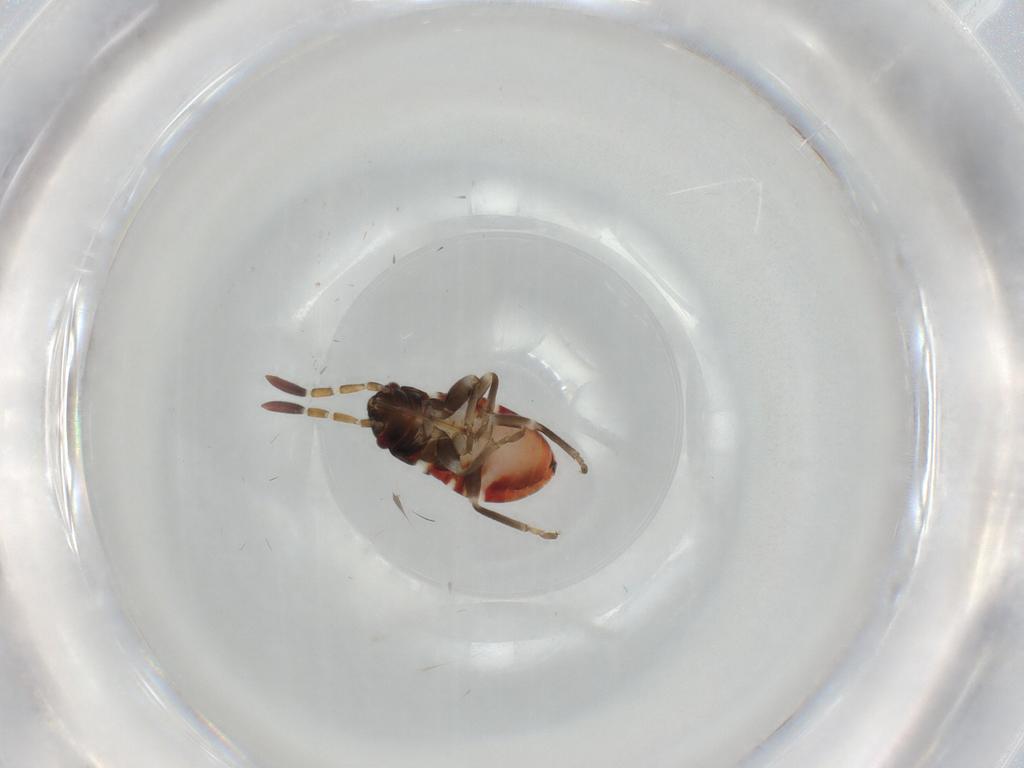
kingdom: Animalia
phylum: Arthropoda
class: Insecta
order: Hemiptera
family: Rhyparochromidae
